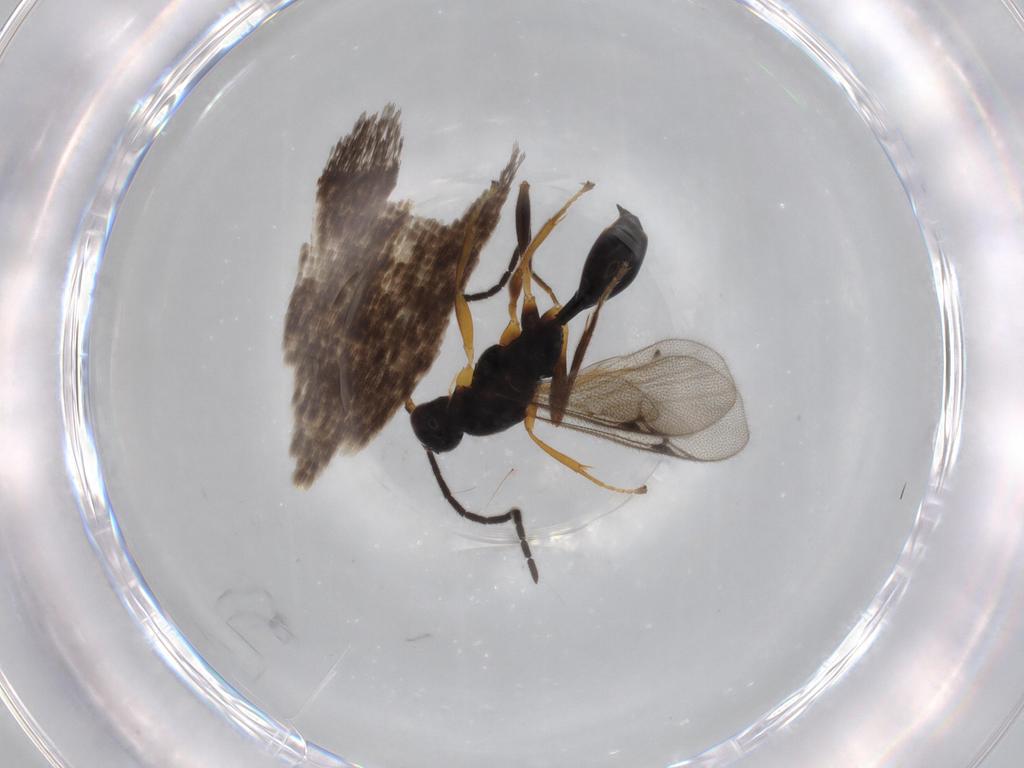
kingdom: Animalia
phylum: Arthropoda
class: Insecta
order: Hymenoptera
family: Proctotrupidae
